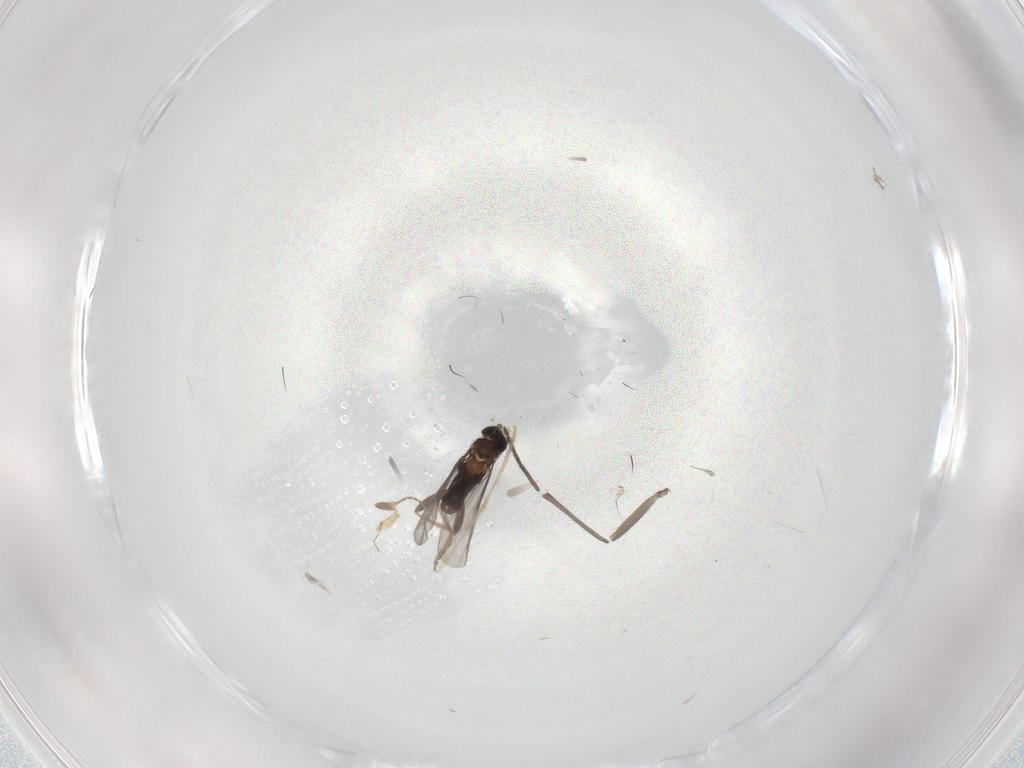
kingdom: Animalia
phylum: Arthropoda
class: Insecta
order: Diptera
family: Sciaridae
